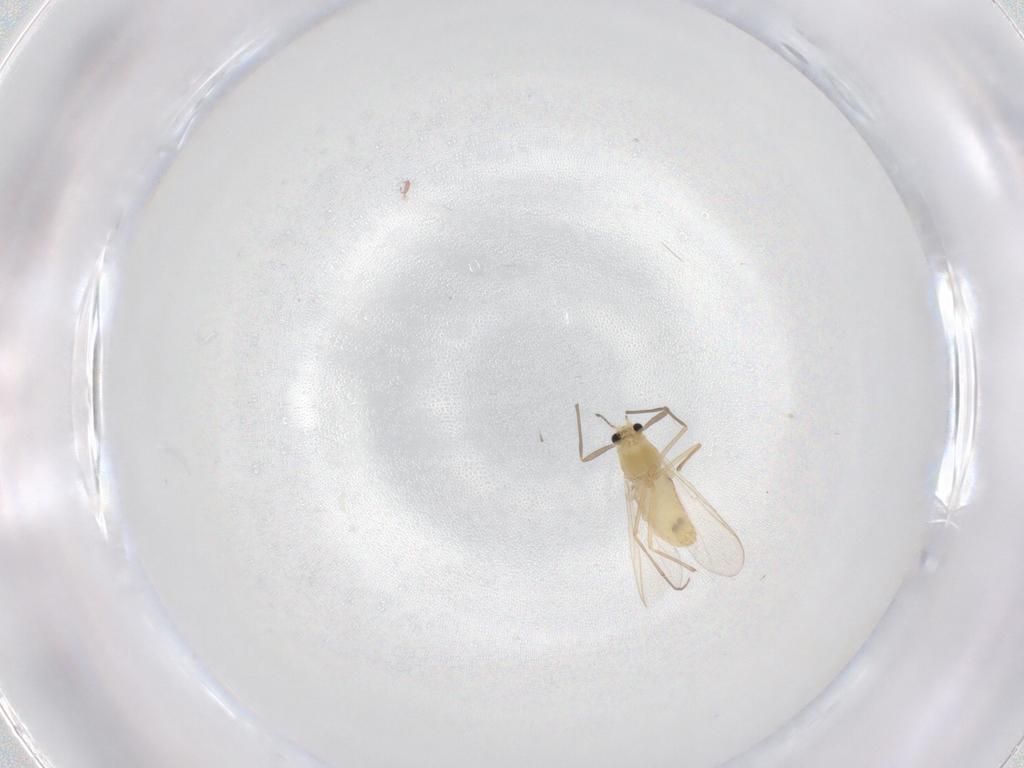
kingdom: Animalia
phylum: Arthropoda
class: Insecta
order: Diptera
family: Chironomidae
